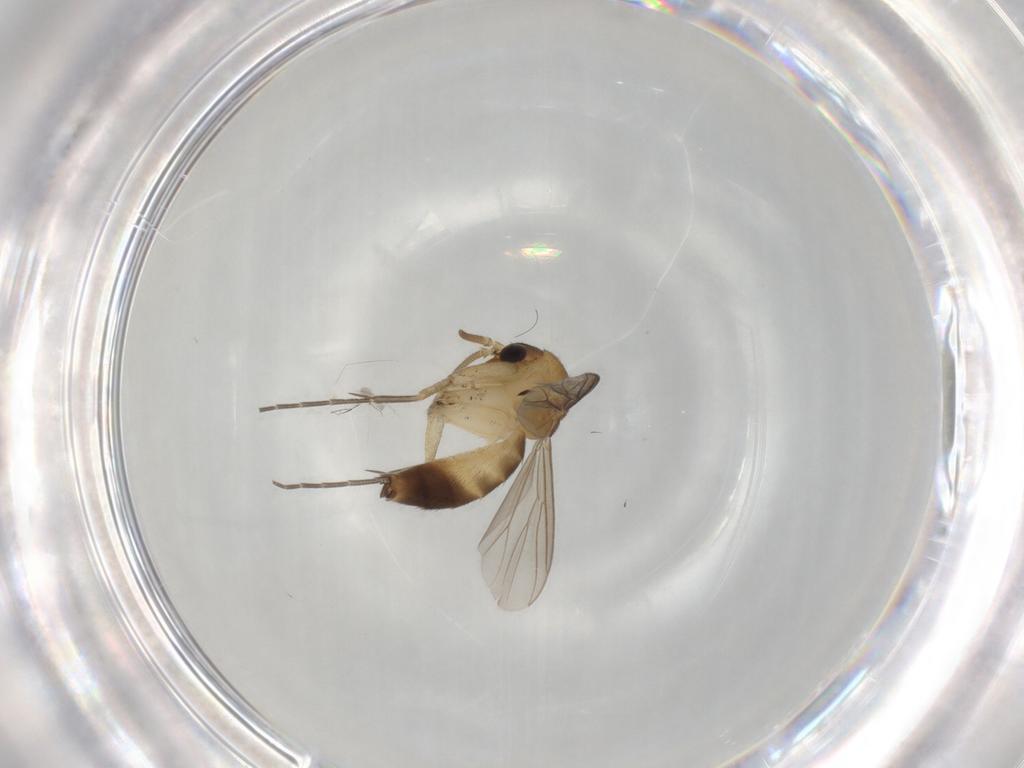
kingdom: Animalia
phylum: Arthropoda
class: Insecta
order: Diptera
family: Mycetophilidae
